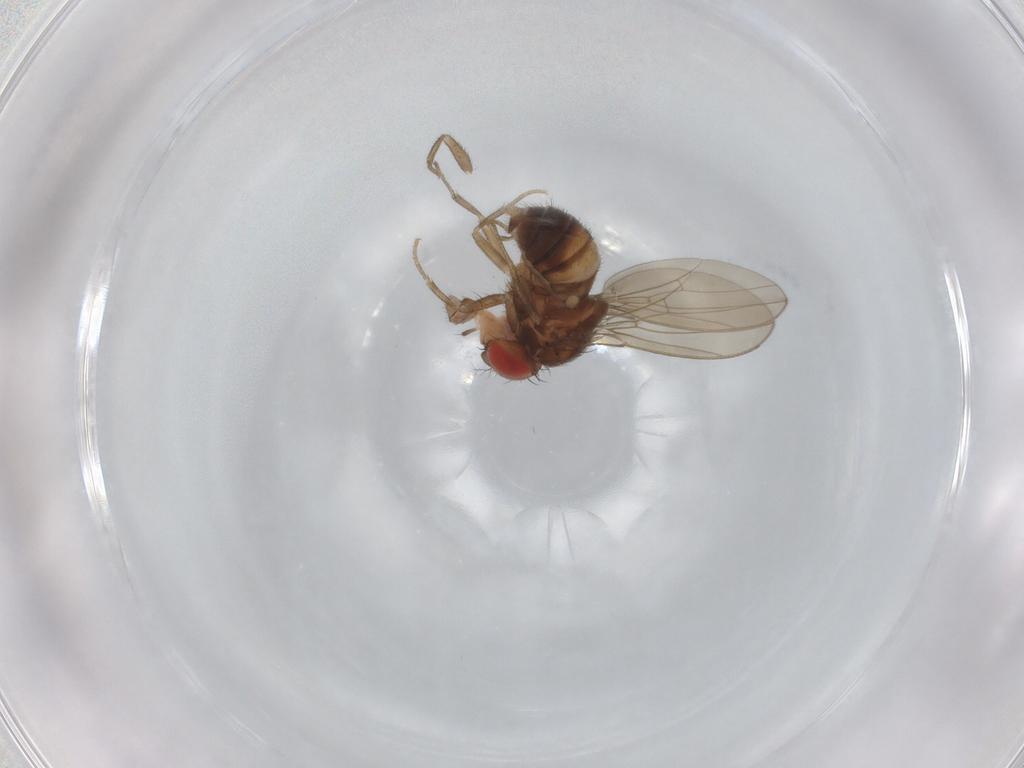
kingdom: Animalia
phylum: Arthropoda
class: Insecta
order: Diptera
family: Drosophilidae
